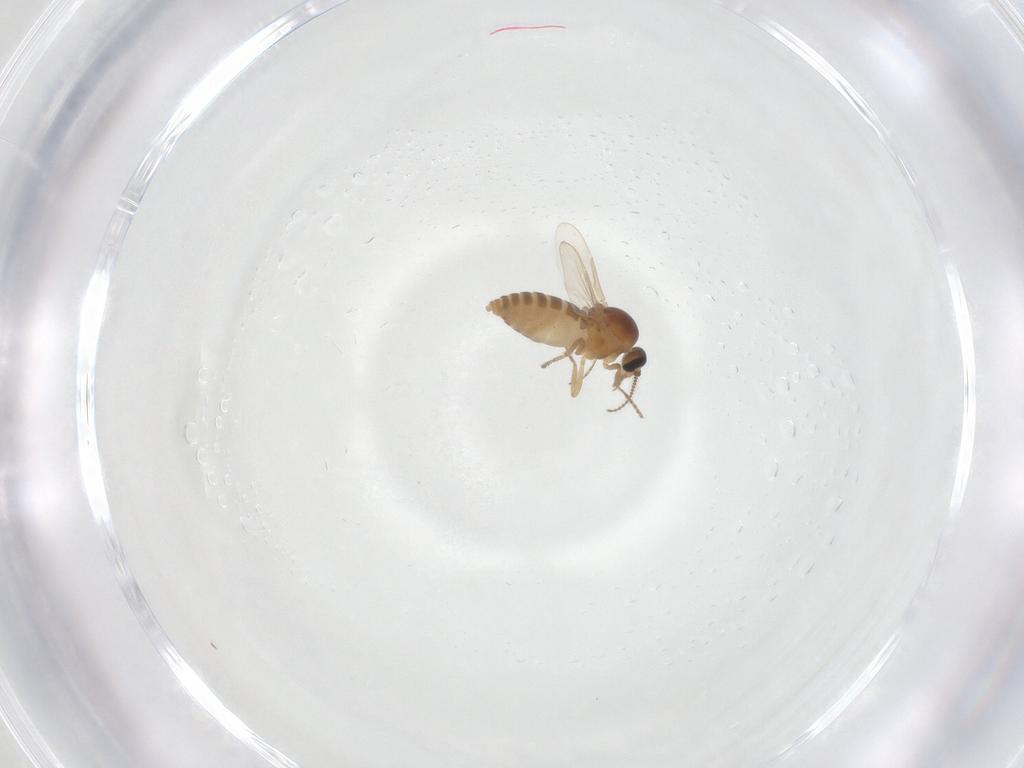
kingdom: Animalia
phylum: Arthropoda
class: Insecta
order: Diptera
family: Ceratopogonidae
